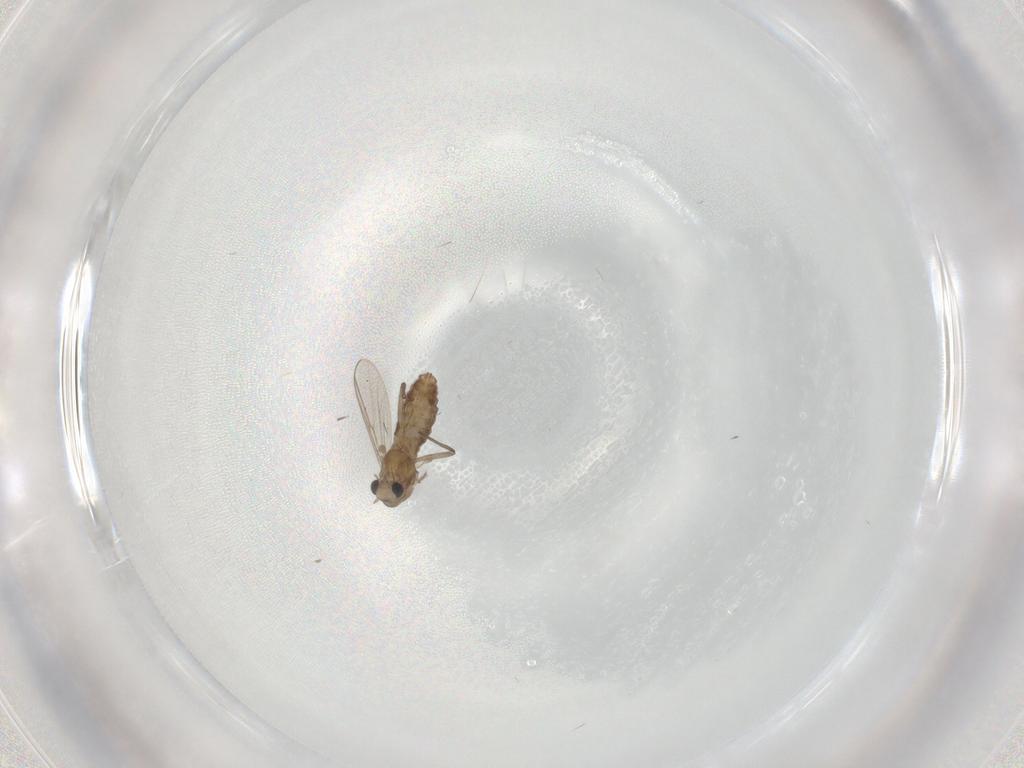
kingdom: Animalia
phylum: Arthropoda
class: Insecta
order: Diptera
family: Chironomidae
